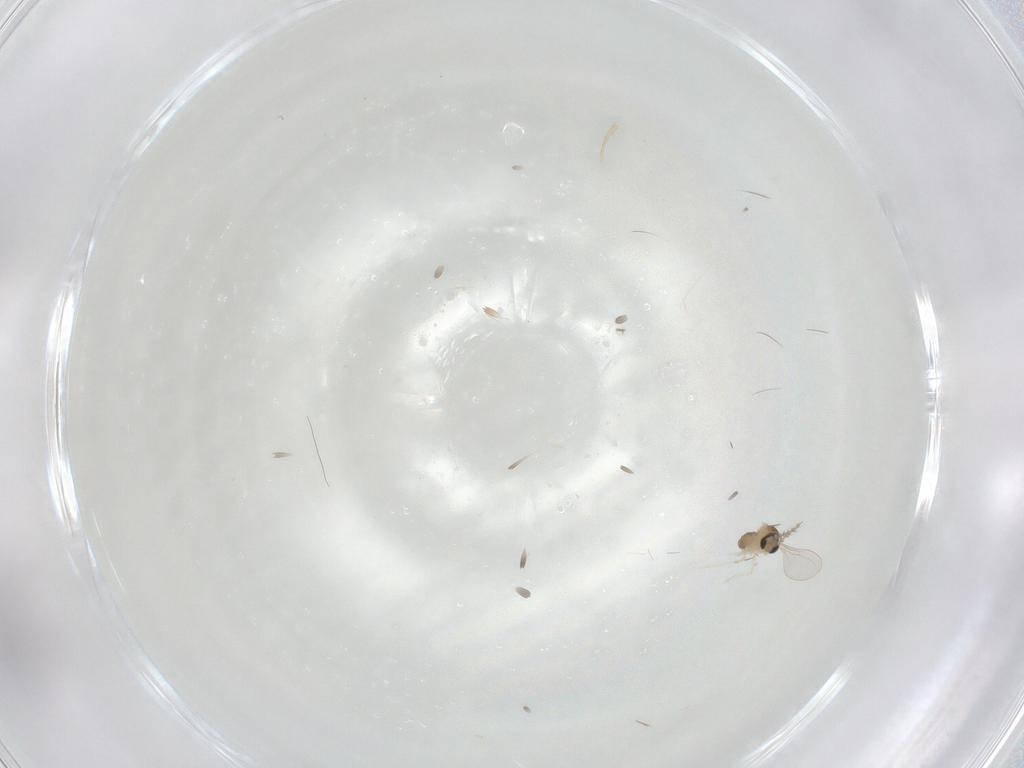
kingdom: Animalia
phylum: Arthropoda
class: Insecta
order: Diptera
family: Cecidomyiidae
